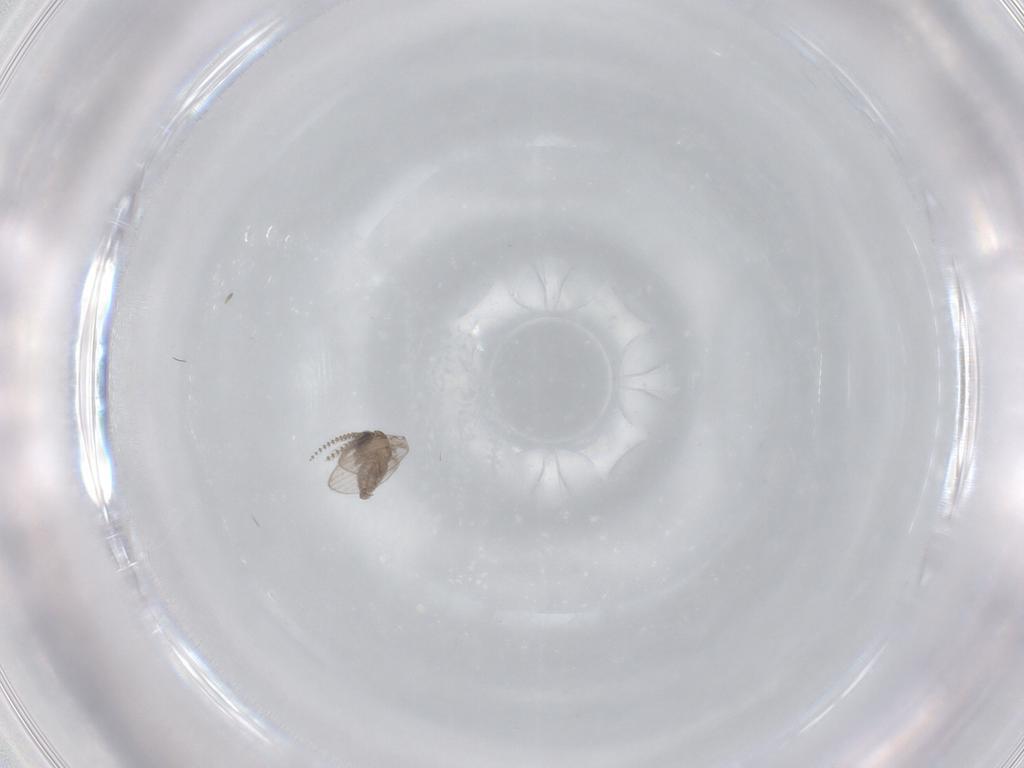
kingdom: Animalia
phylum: Arthropoda
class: Insecta
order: Diptera
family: Psychodidae
